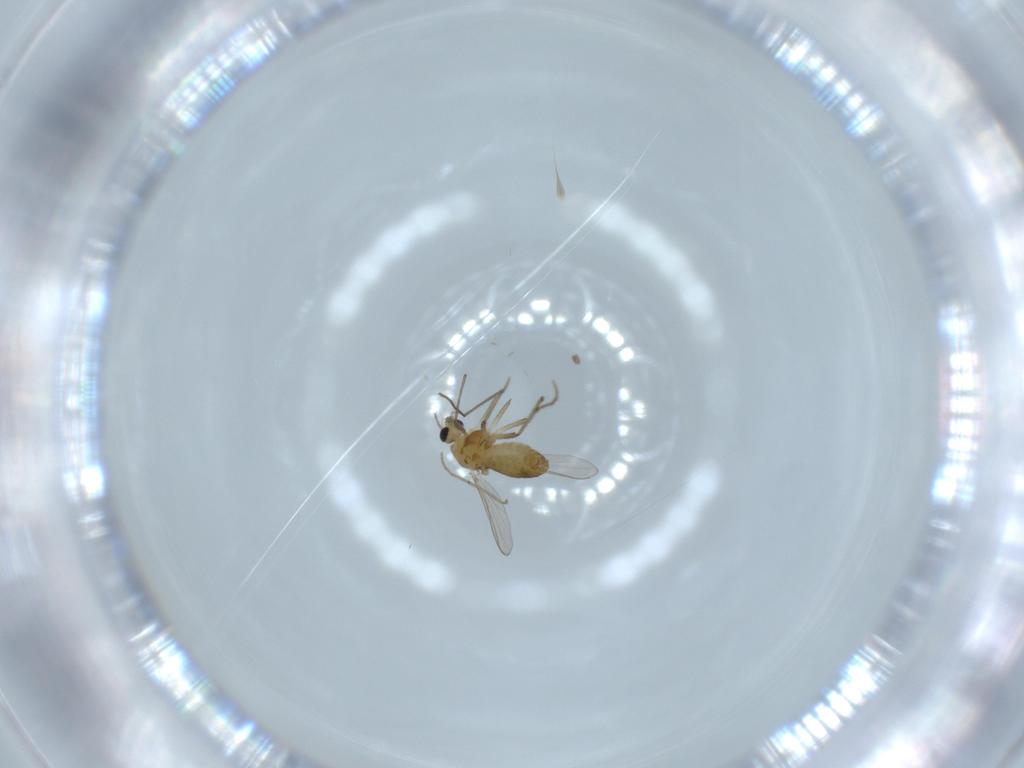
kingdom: Animalia
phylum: Arthropoda
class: Insecta
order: Diptera
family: Chironomidae
